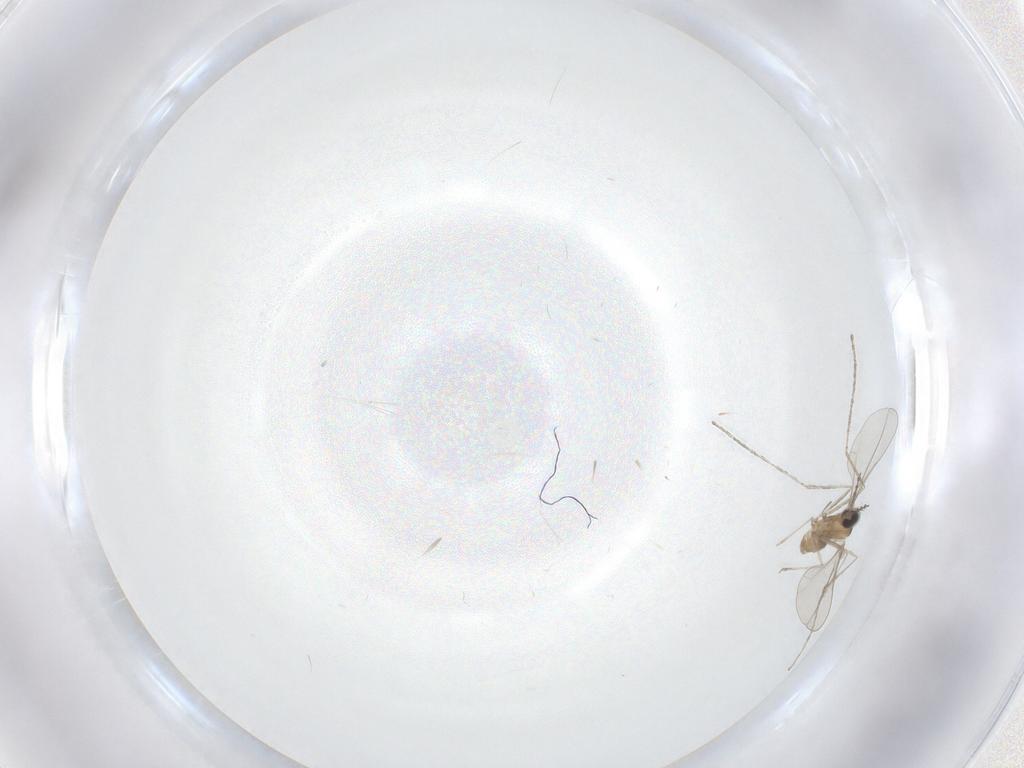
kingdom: Animalia
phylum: Arthropoda
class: Insecta
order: Diptera
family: Cecidomyiidae
